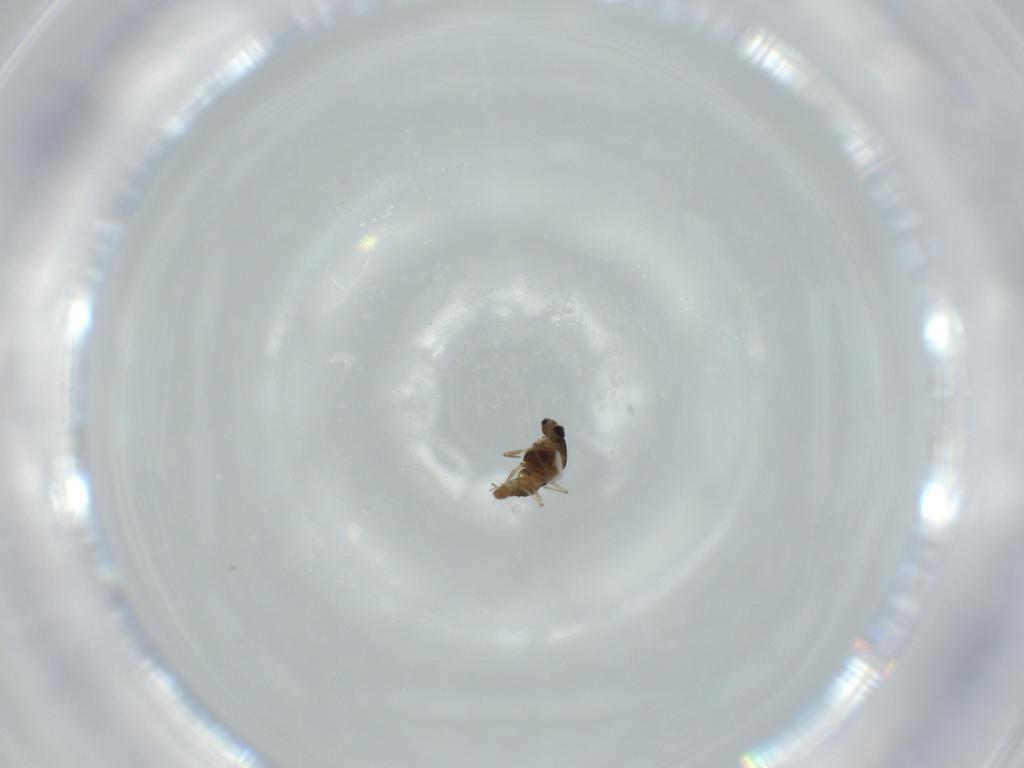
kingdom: Animalia
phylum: Arthropoda
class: Insecta
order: Diptera
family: Chironomidae
